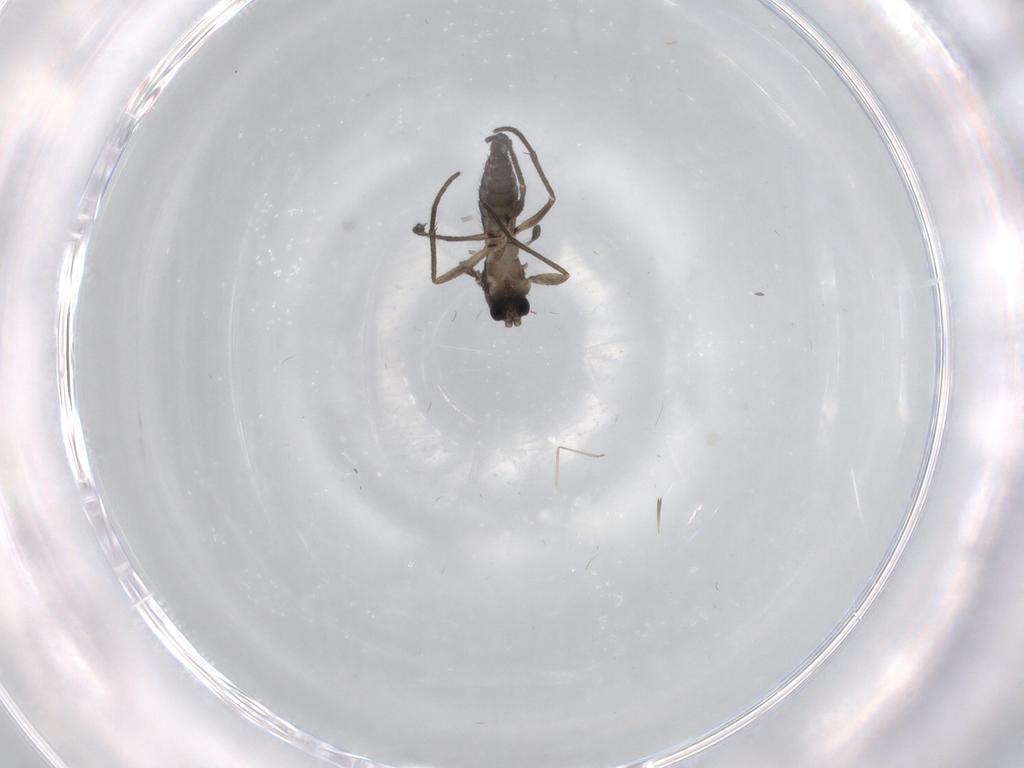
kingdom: Animalia
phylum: Arthropoda
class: Insecta
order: Diptera
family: Sciaridae
